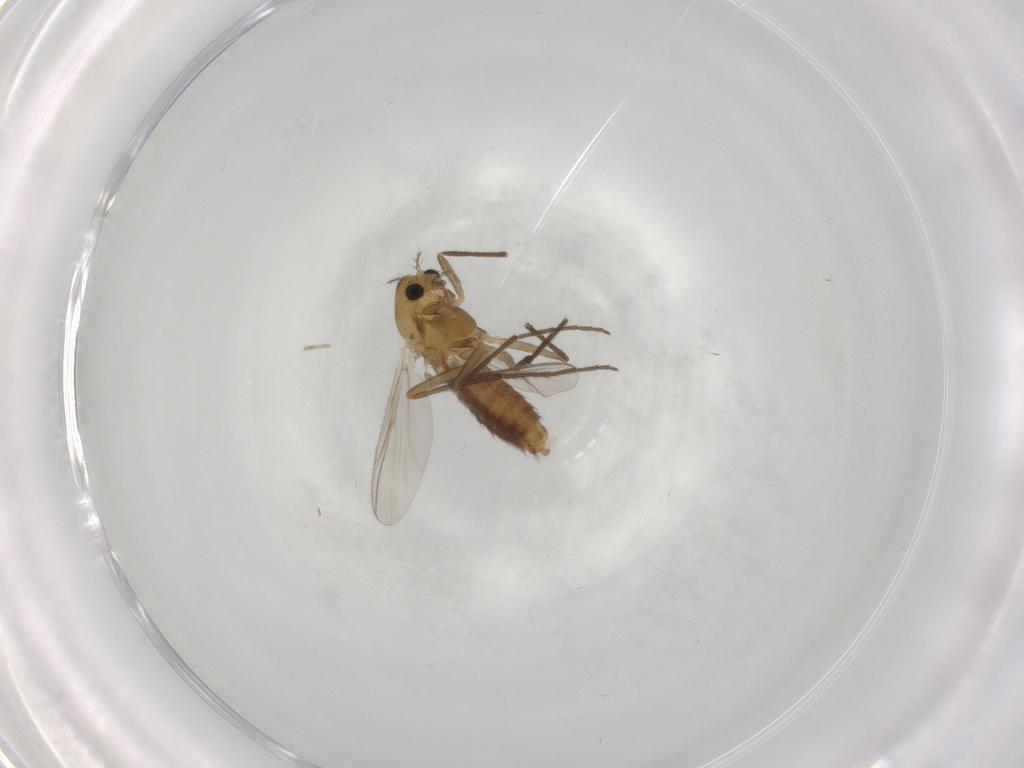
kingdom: Animalia
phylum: Arthropoda
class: Insecta
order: Diptera
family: Chironomidae
